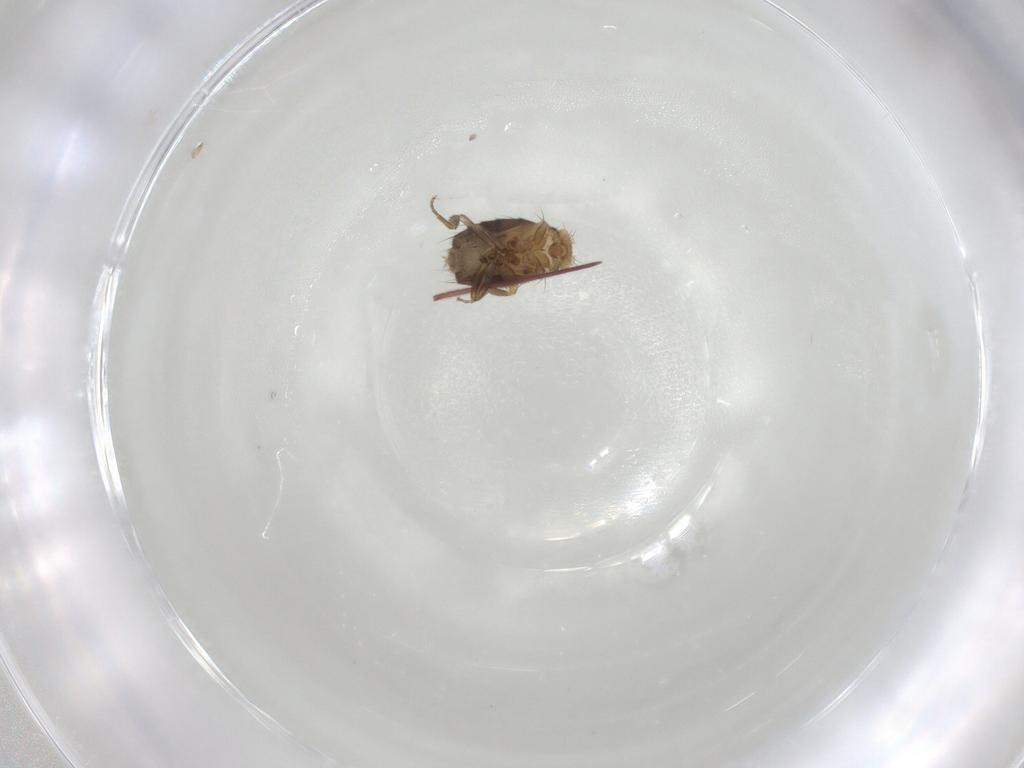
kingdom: Animalia
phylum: Arthropoda
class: Insecta
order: Diptera
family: Phoridae
